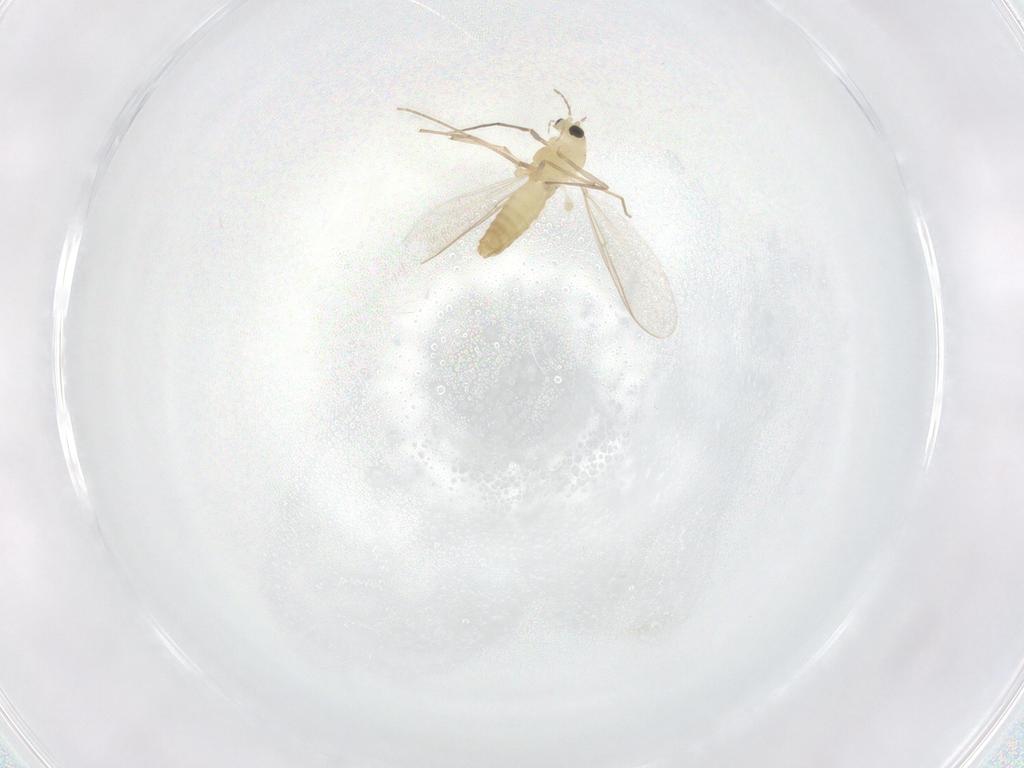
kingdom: Animalia
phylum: Arthropoda
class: Insecta
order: Diptera
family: Chironomidae
